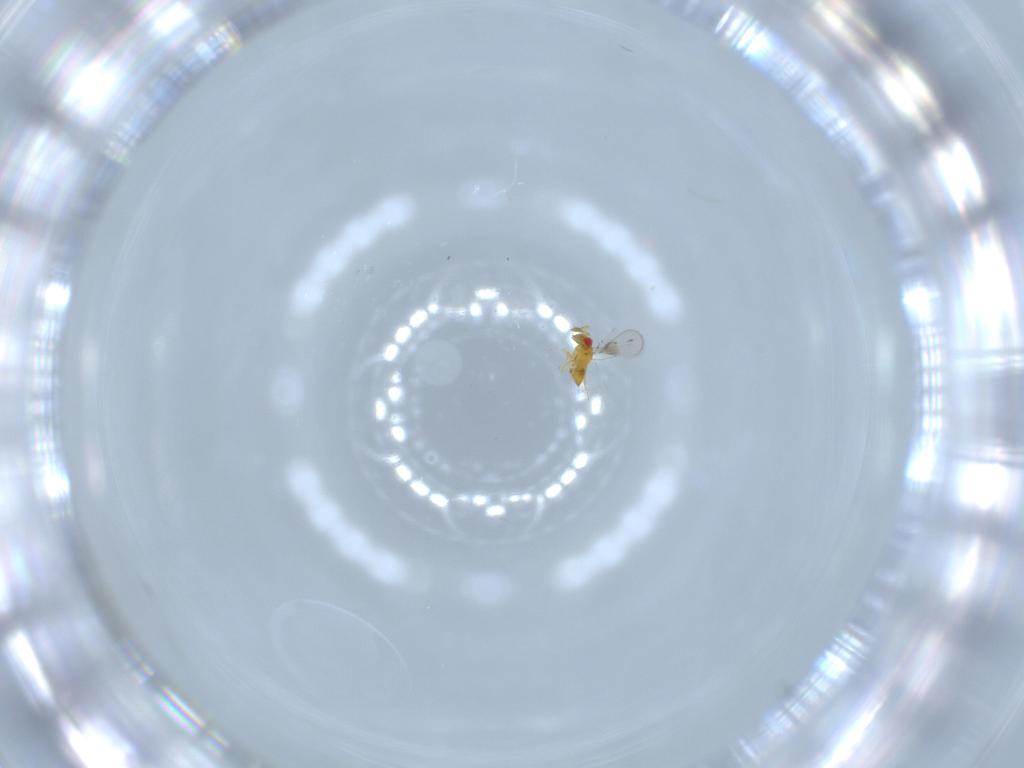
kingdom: Animalia
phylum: Arthropoda
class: Insecta
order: Hymenoptera
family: Trichogrammatidae
